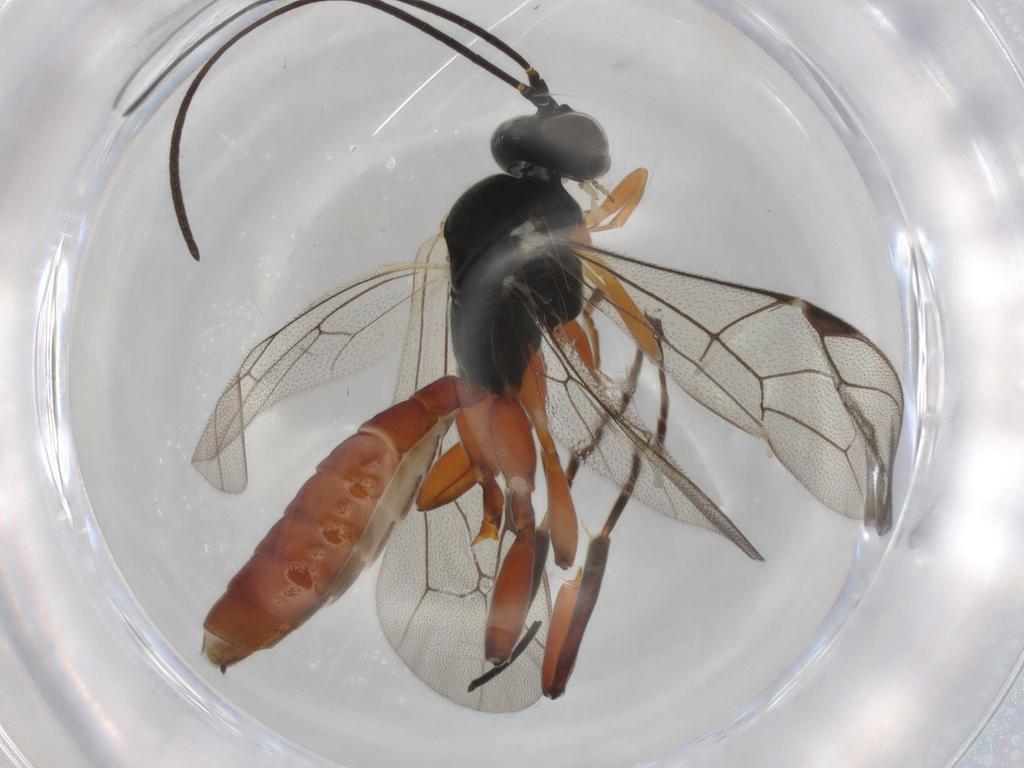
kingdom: Animalia
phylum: Arthropoda
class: Insecta
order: Hymenoptera
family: Ichneumonidae
